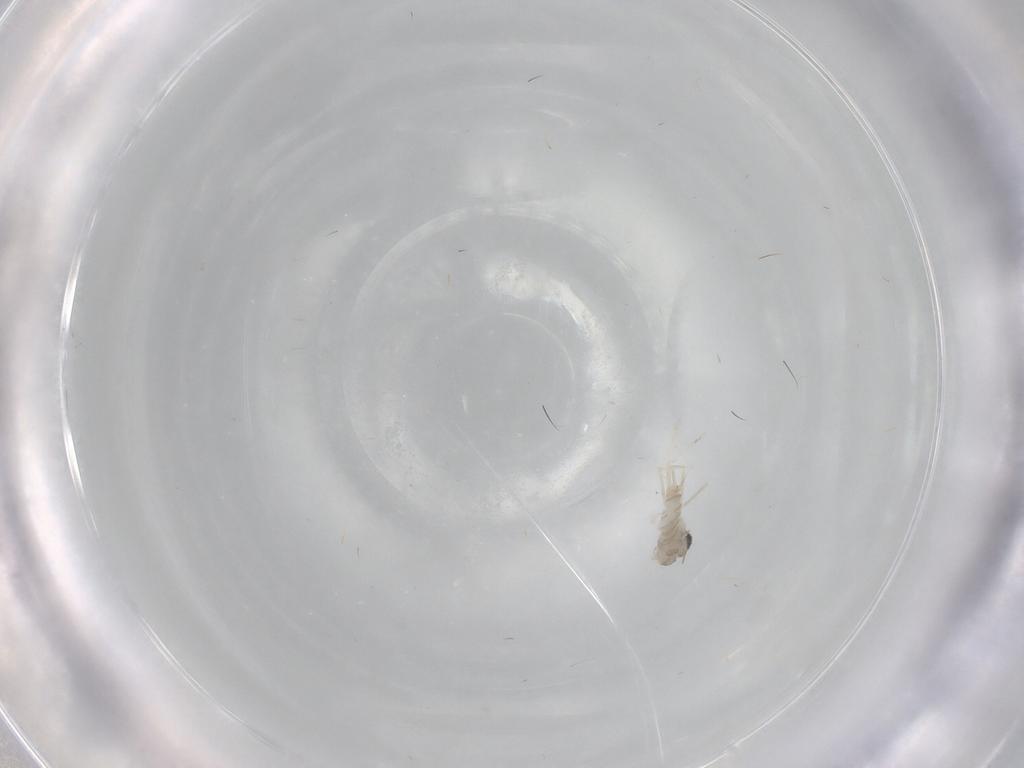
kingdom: Animalia
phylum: Arthropoda
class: Insecta
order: Diptera
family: Cecidomyiidae
